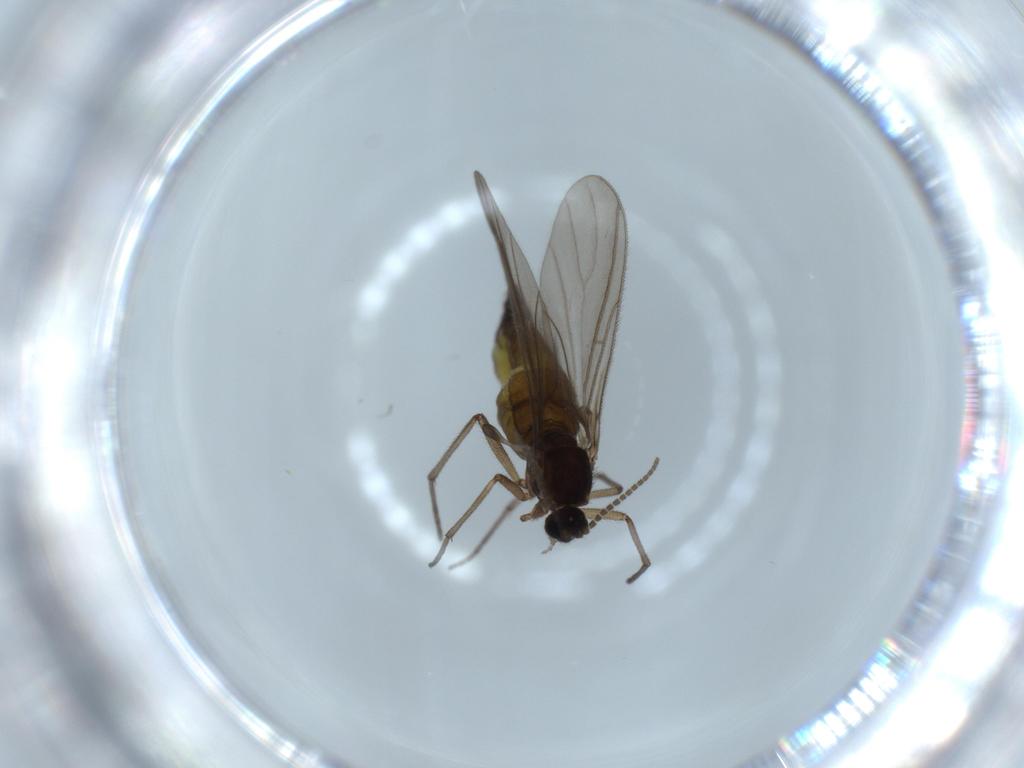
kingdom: Animalia
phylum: Arthropoda
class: Insecta
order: Diptera
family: Sciaridae
